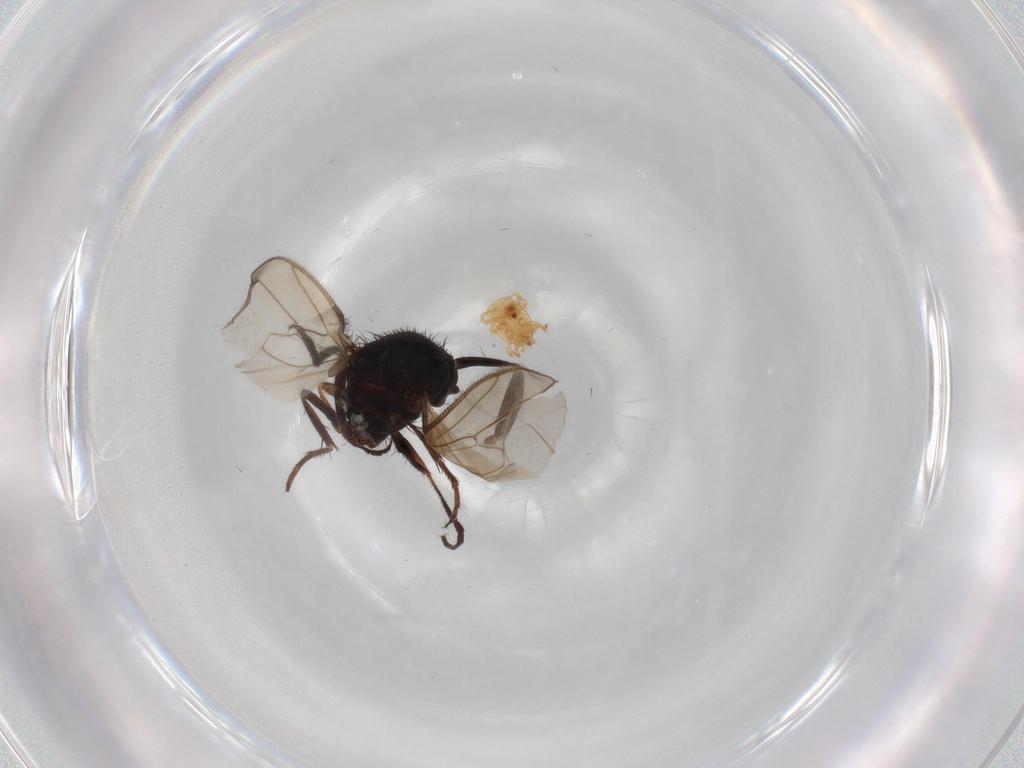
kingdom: Animalia
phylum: Arthropoda
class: Insecta
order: Diptera
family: Sphaeroceridae
